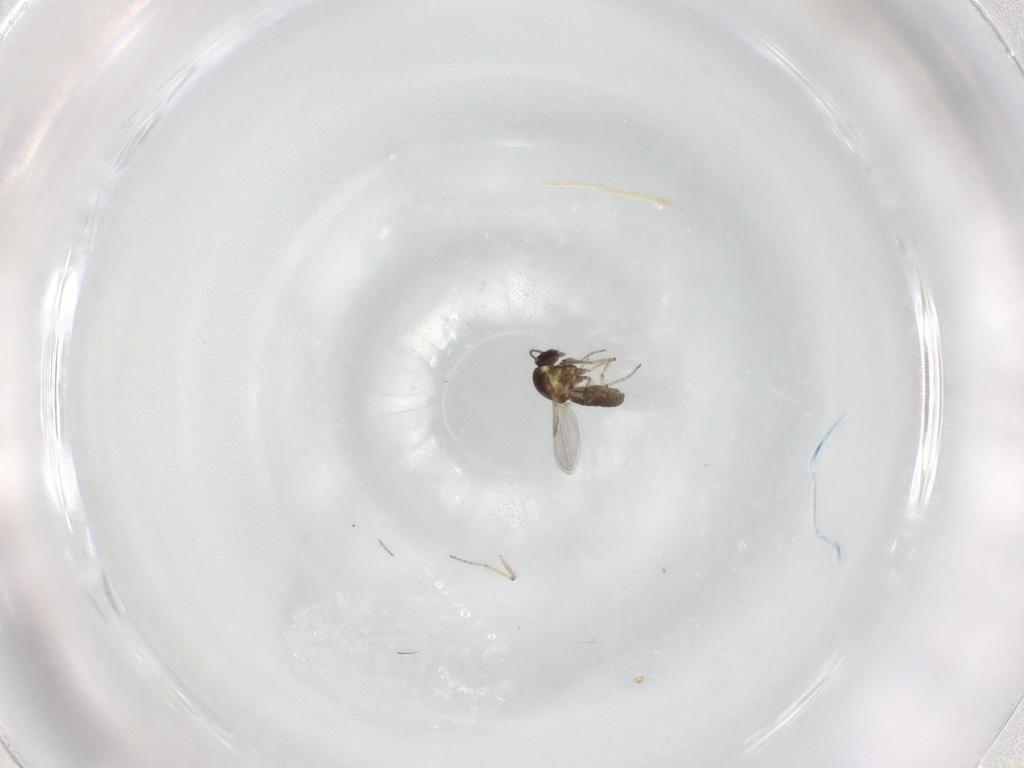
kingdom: Animalia
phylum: Arthropoda
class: Insecta
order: Diptera
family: Ceratopogonidae
